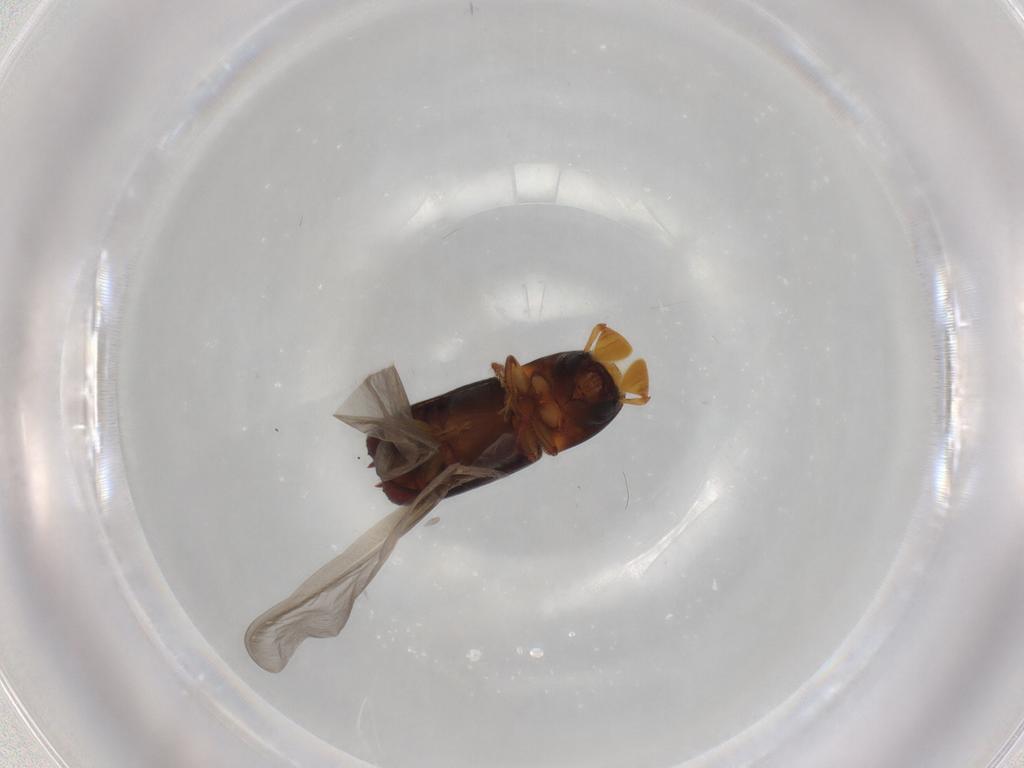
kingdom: Animalia
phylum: Arthropoda
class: Insecta
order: Coleoptera
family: Curculionidae
